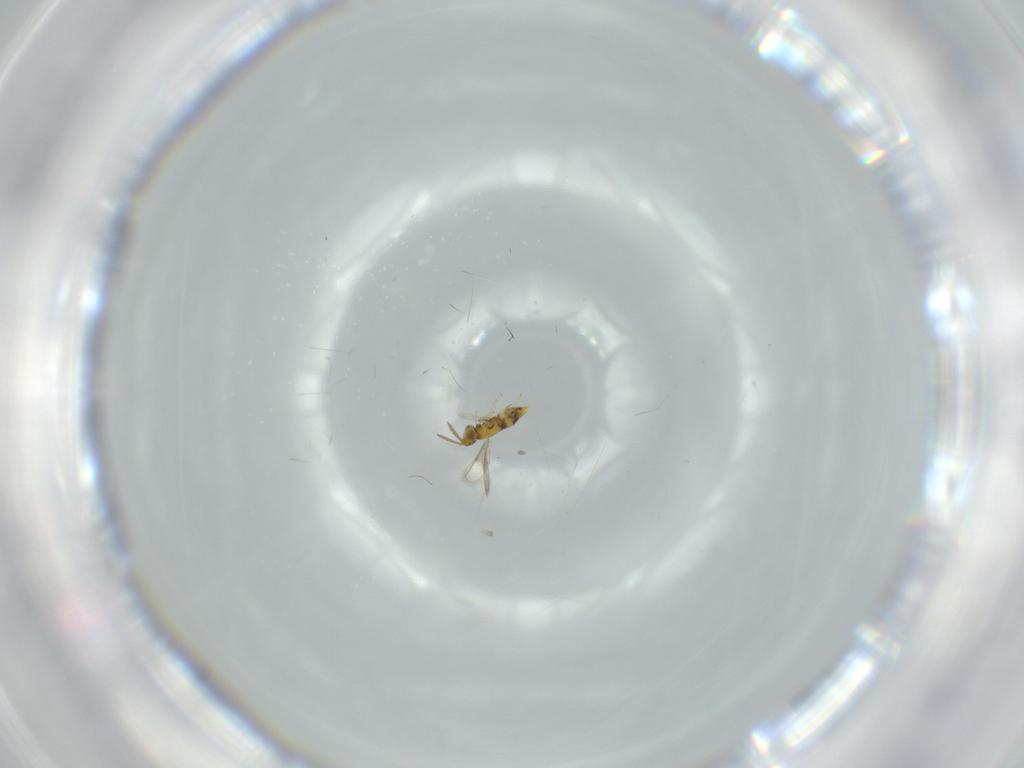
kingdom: Animalia
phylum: Arthropoda
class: Insecta
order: Hymenoptera
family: Aphelinidae
